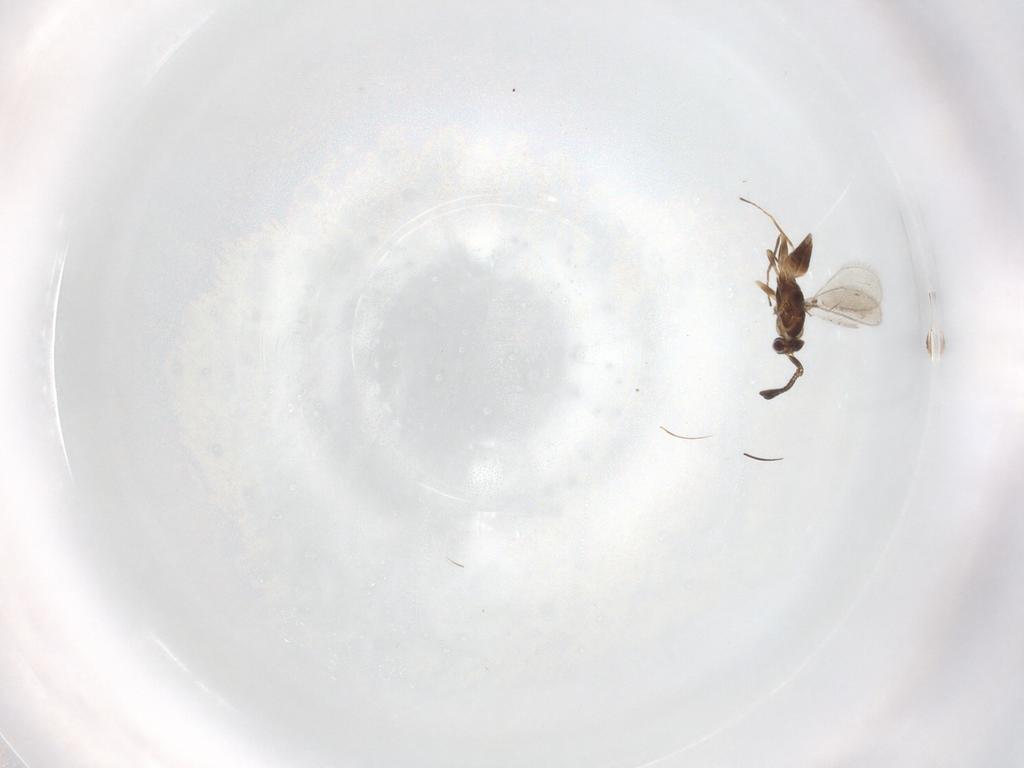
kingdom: Animalia
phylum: Arthropoda
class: Insecta
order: Hymenoptera
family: Mymaridae
